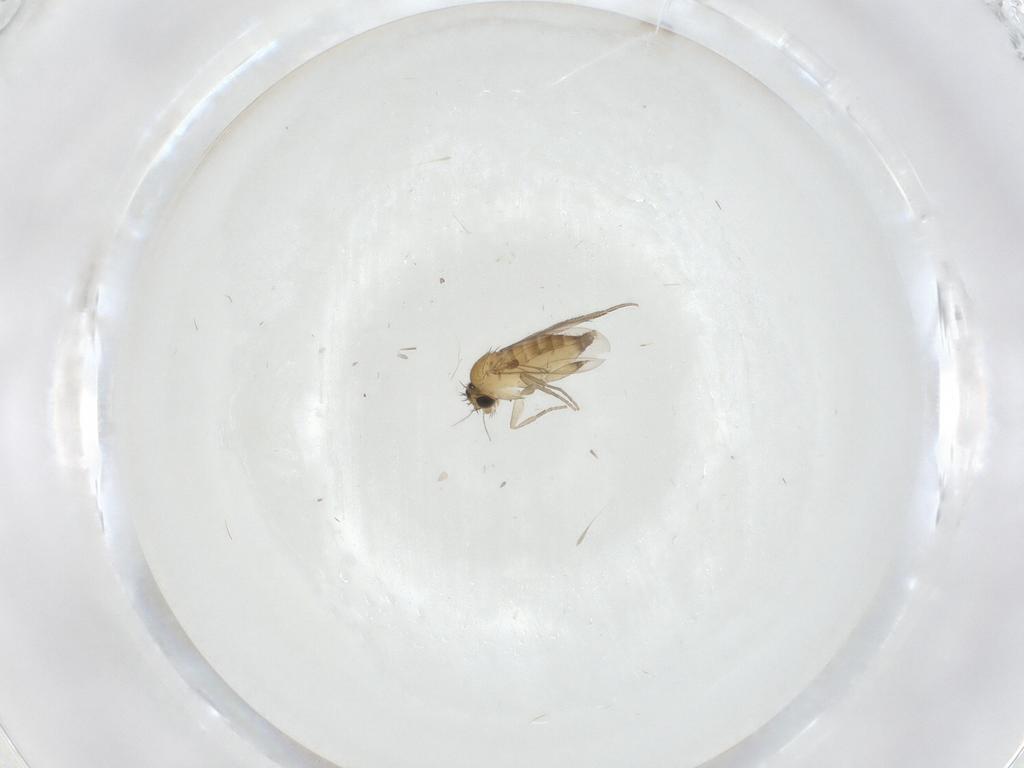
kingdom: Animalia
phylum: Arthropoda
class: Insecta
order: Diptera
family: Phoridae
